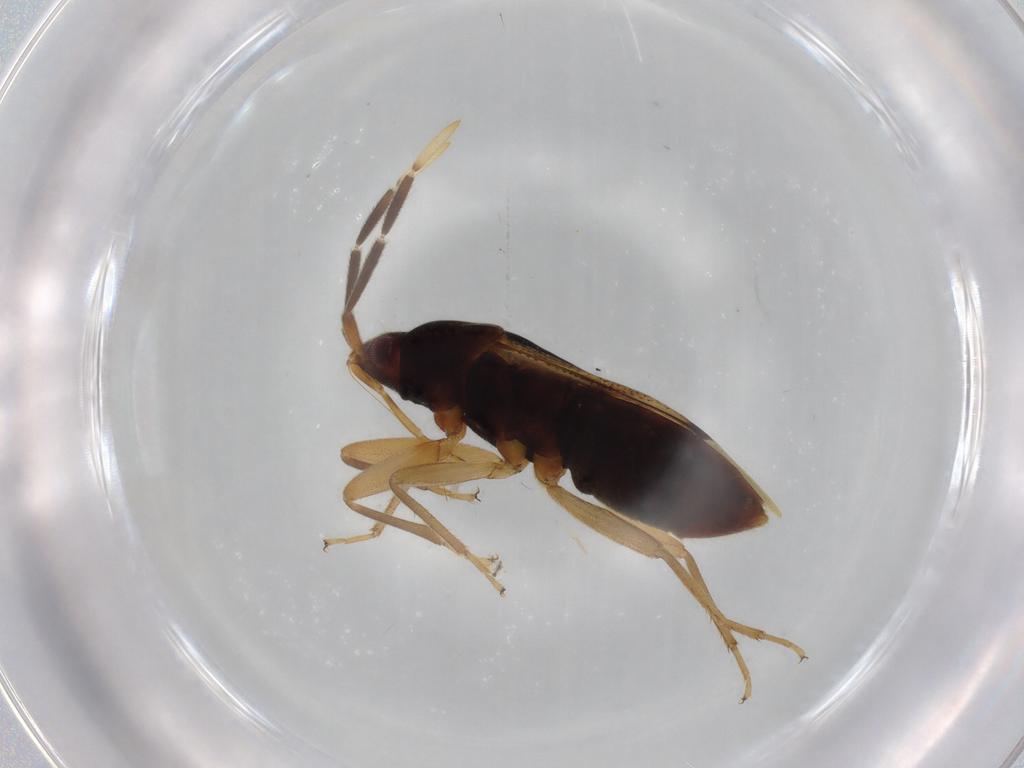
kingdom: Animalia
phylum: Arthropoda
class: Insecta
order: Hemiptera
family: Rhyparochromidae
